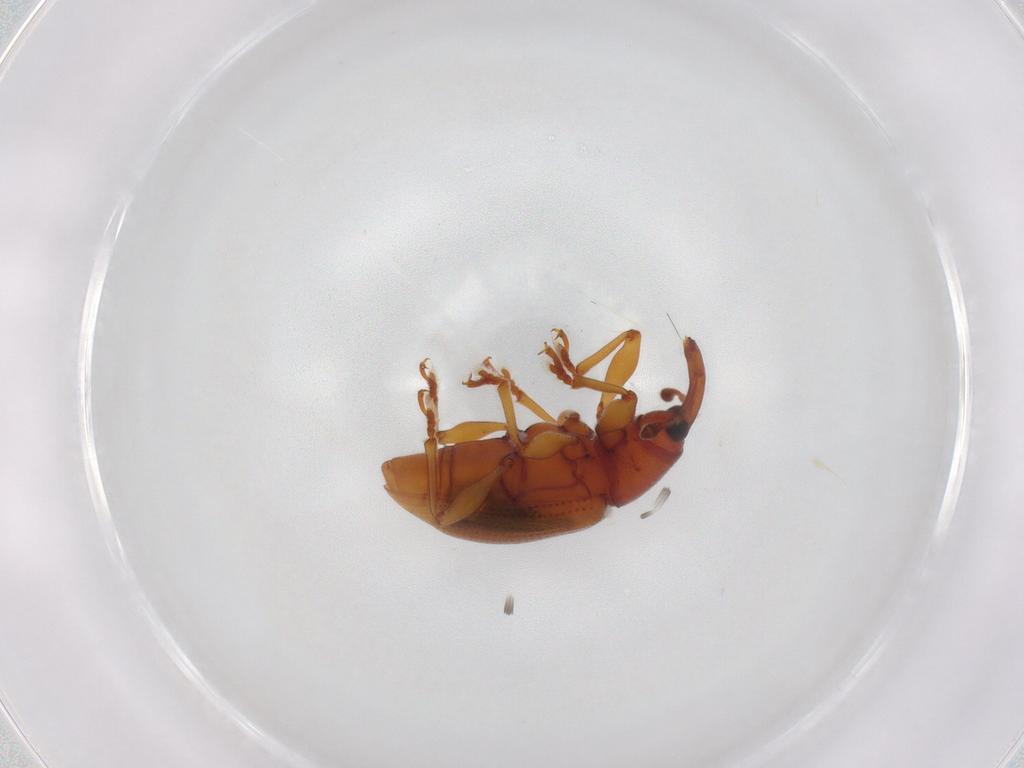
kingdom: Animalia
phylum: Arthropoda
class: Insecta
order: Coleoptera
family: Curculionidae
